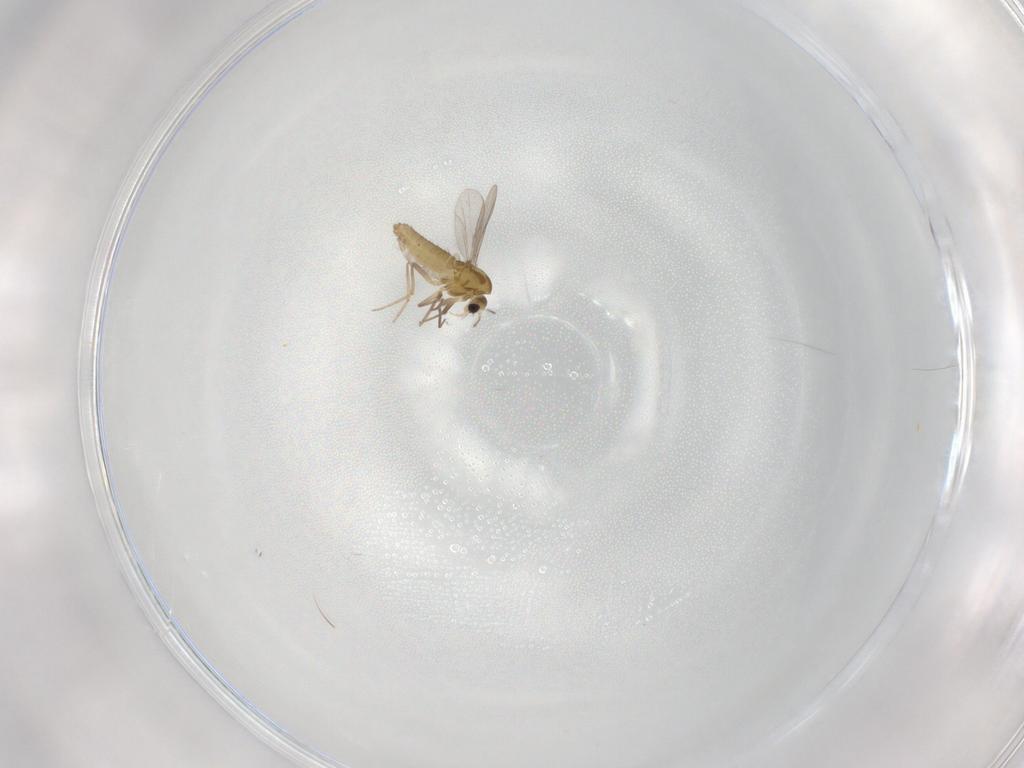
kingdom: Animalia
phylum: Arthropoda
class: Insecta
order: Diptera
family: Chironomidae
